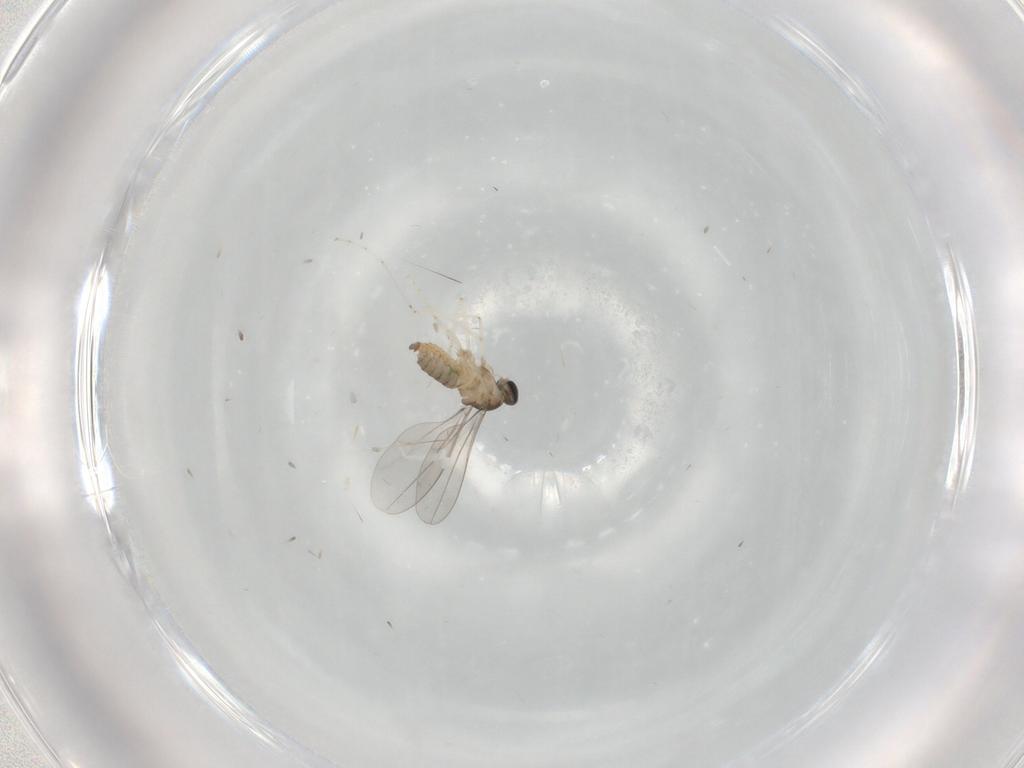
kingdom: Animalia
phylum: Arthropoda
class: Insecta
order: Diptera
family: Cecidomyiidae
